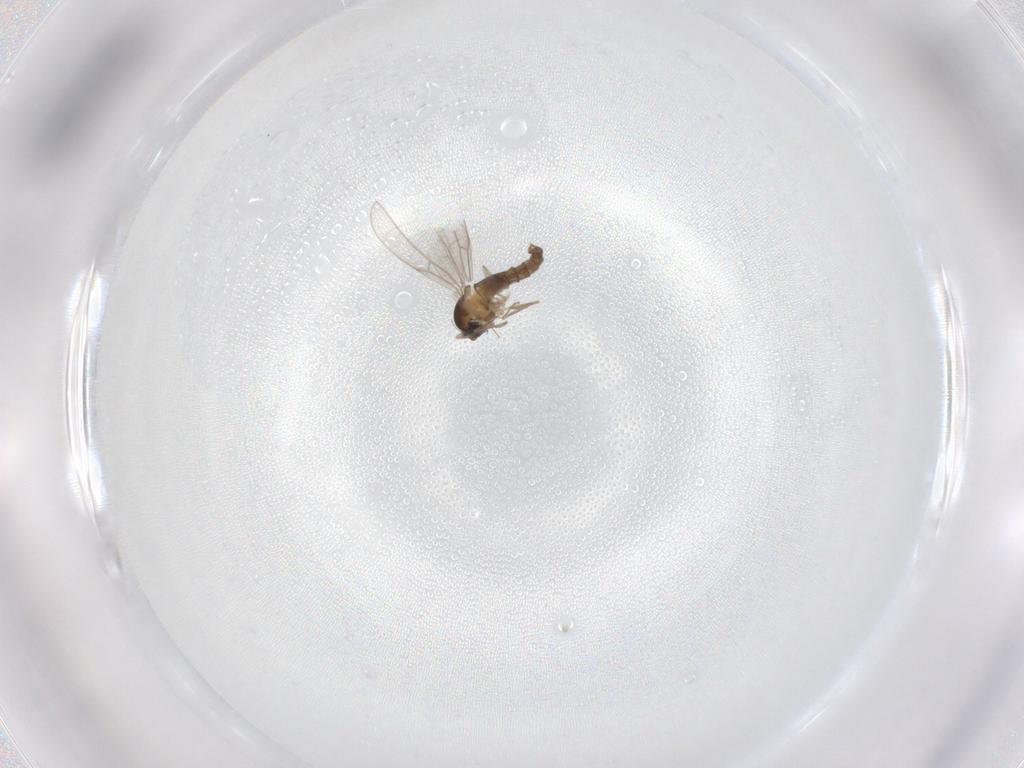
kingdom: Animalia
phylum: Arthropoda
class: Insecta
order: Diptera
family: Cecidomyiidae
